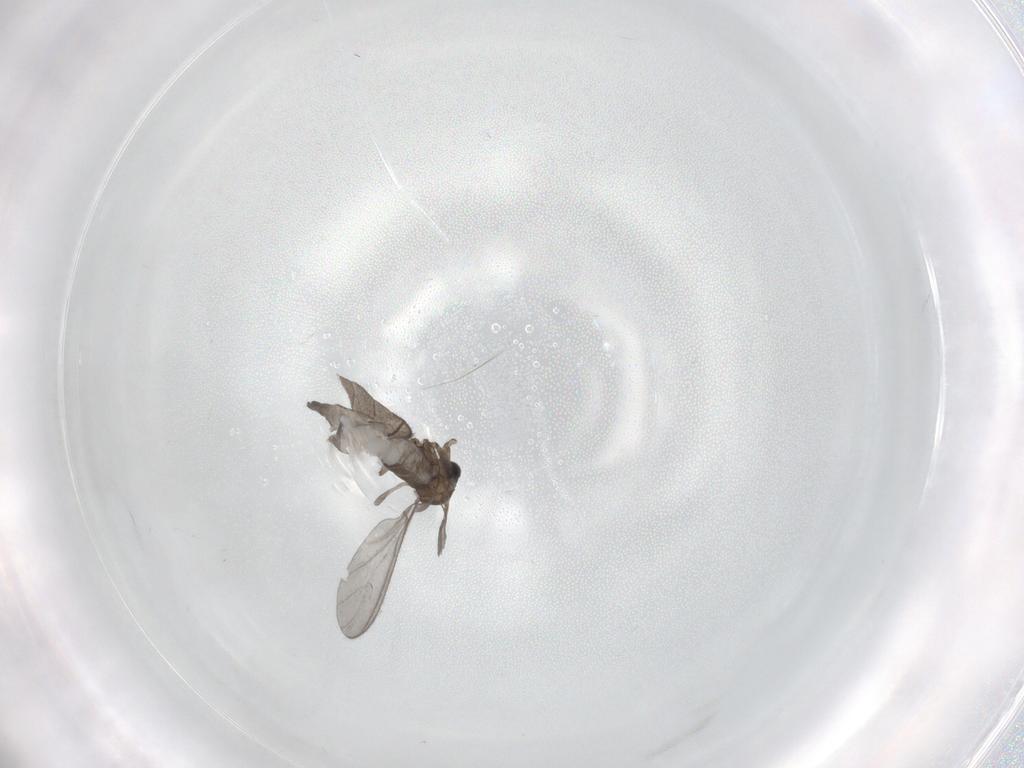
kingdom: Animalia
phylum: Arthropoda
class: Insecta
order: Diptera
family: Sciaridae
